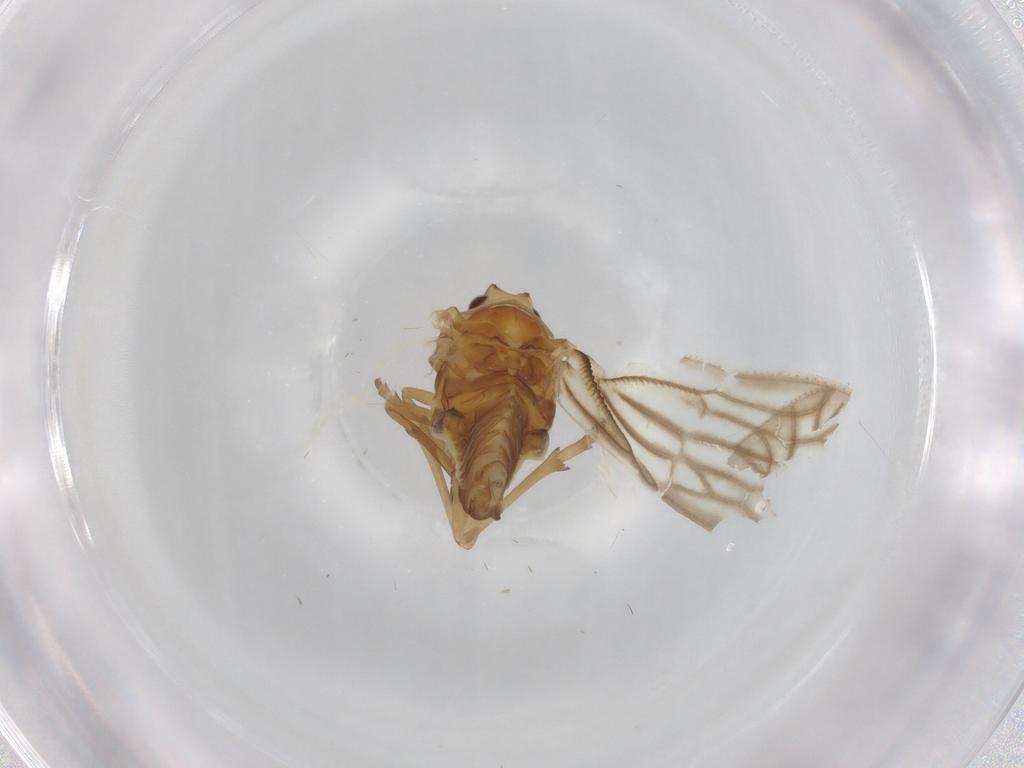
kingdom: Animalia
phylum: Arthropoda
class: Insecta
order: Hemiptera
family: Meenoplidae
